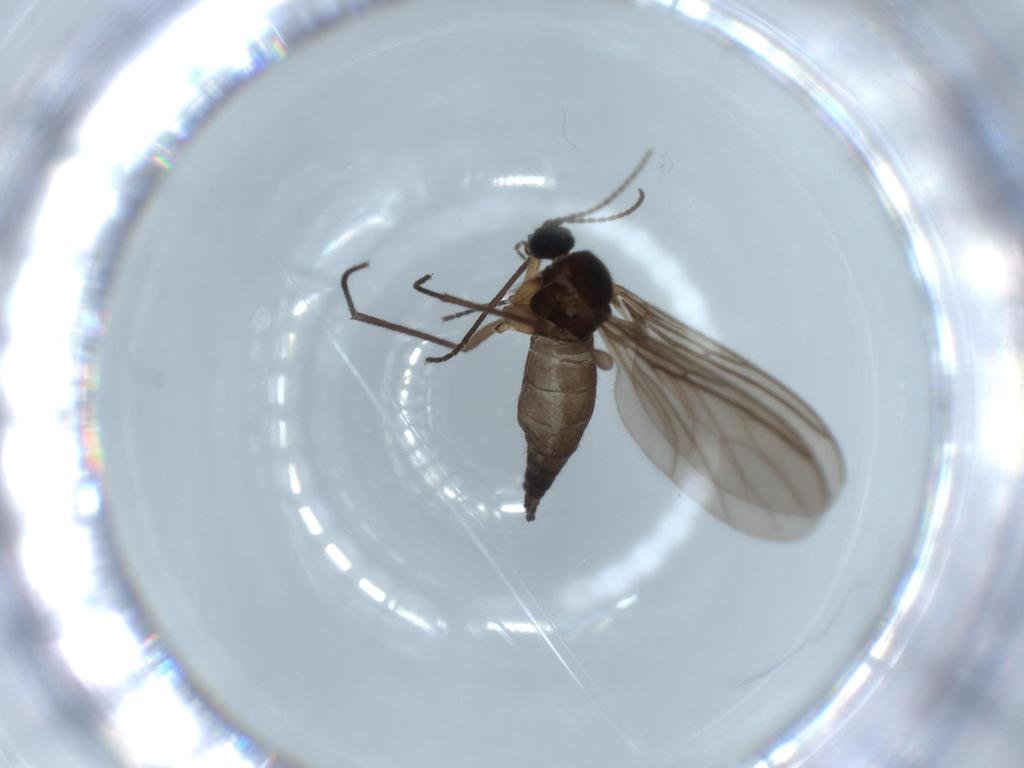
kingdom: Animalia
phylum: Arthropoda
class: Insecta
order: Diptera
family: Sciaridae
